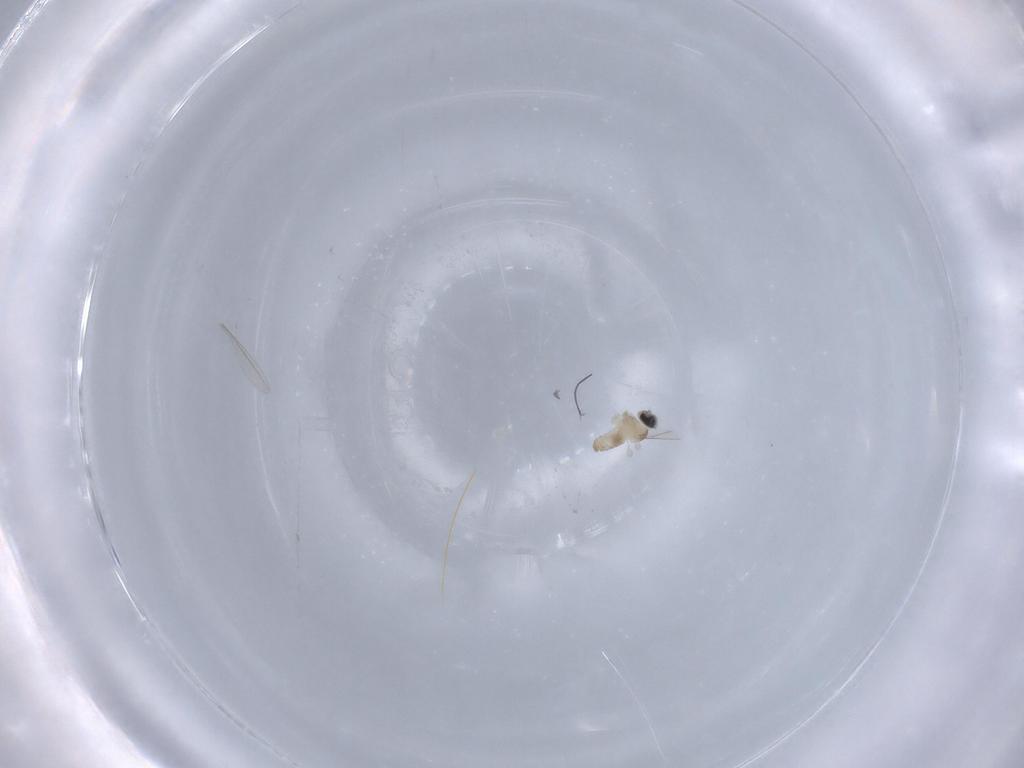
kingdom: Animalia
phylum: Arthropoda
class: Insecta
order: Diptera
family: Cecidomyiidae
